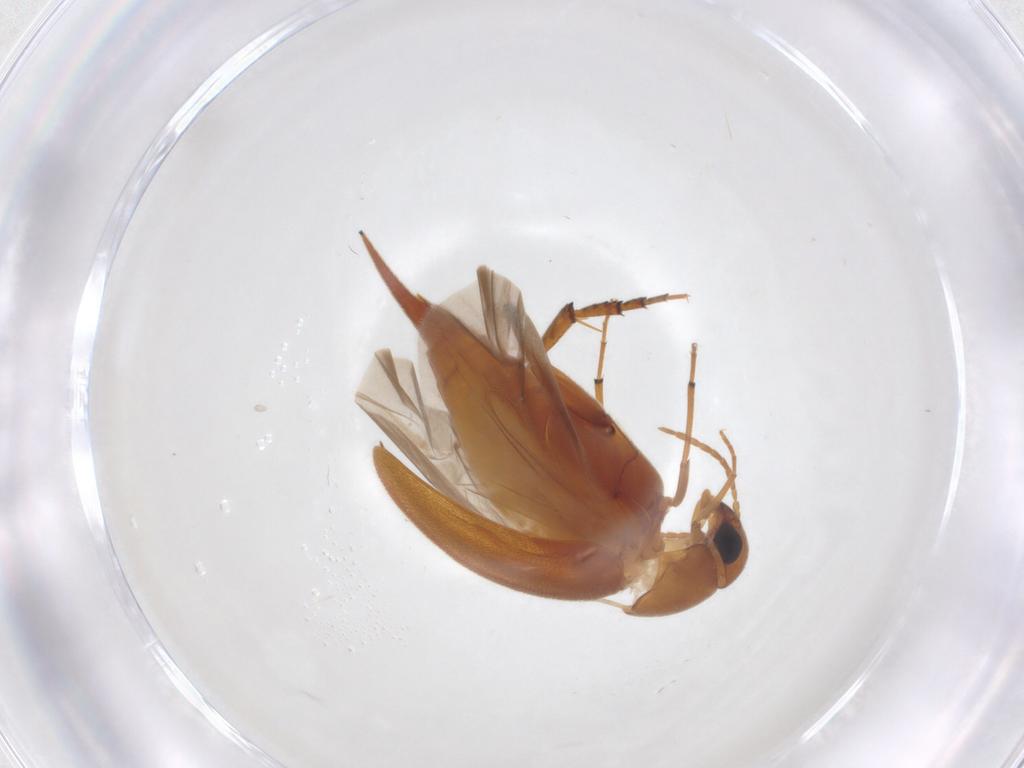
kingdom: Animalia
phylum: Arthropoda
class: Insecta
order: Coleoptera
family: Mordellidae
